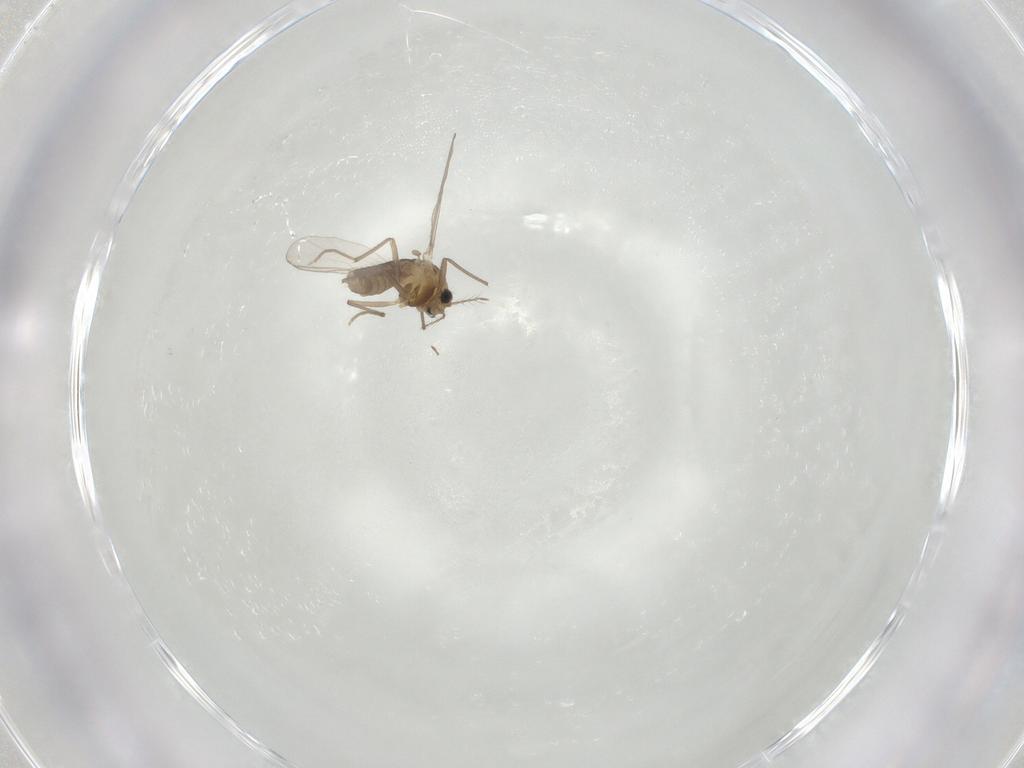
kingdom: Animalia
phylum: Arthropoda
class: Insecta
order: Diptera
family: Chironomidae
